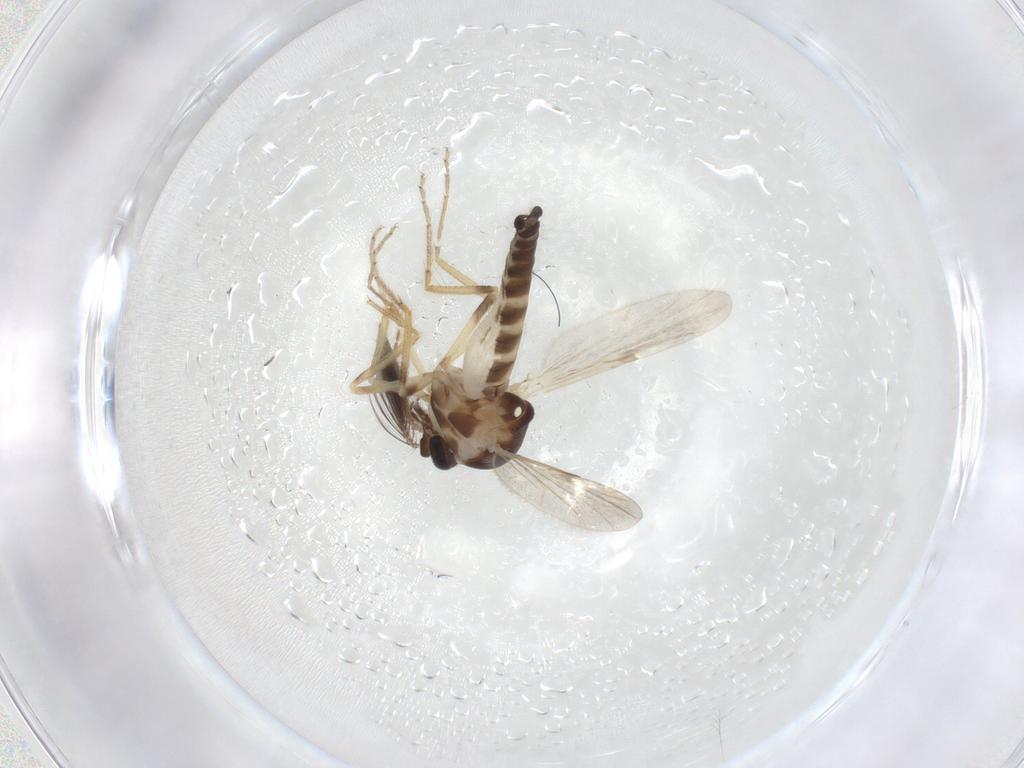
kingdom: Animalia
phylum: Arthropoda
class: Insecta
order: Diptera
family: Ceratopogonidae
